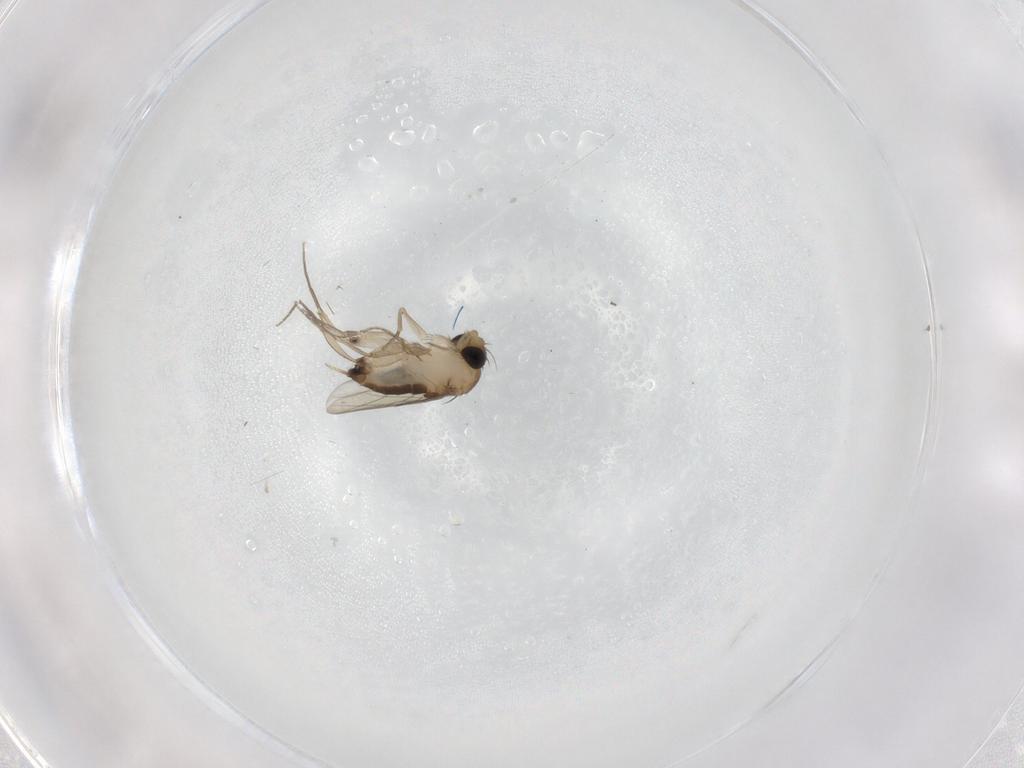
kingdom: Animalia
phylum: Arthropoda
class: Insecta
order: Diptera
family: Phoridae
